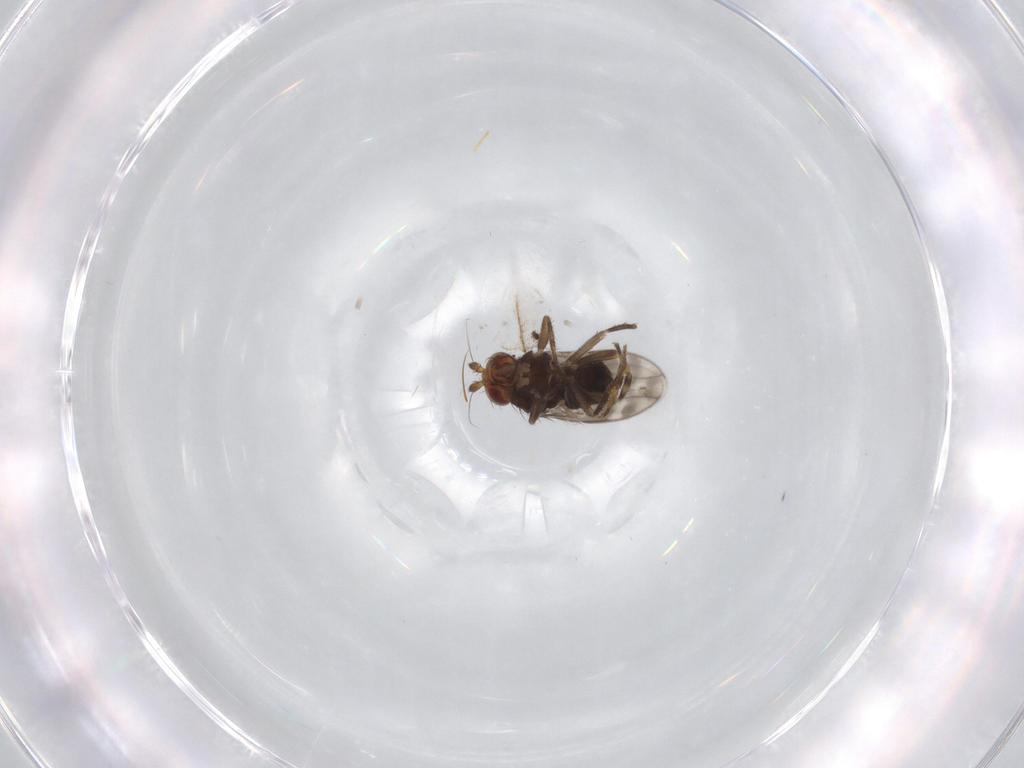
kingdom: Animalia
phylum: Arthropoda
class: Insecta
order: Diptera
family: Sphaeroceridae
